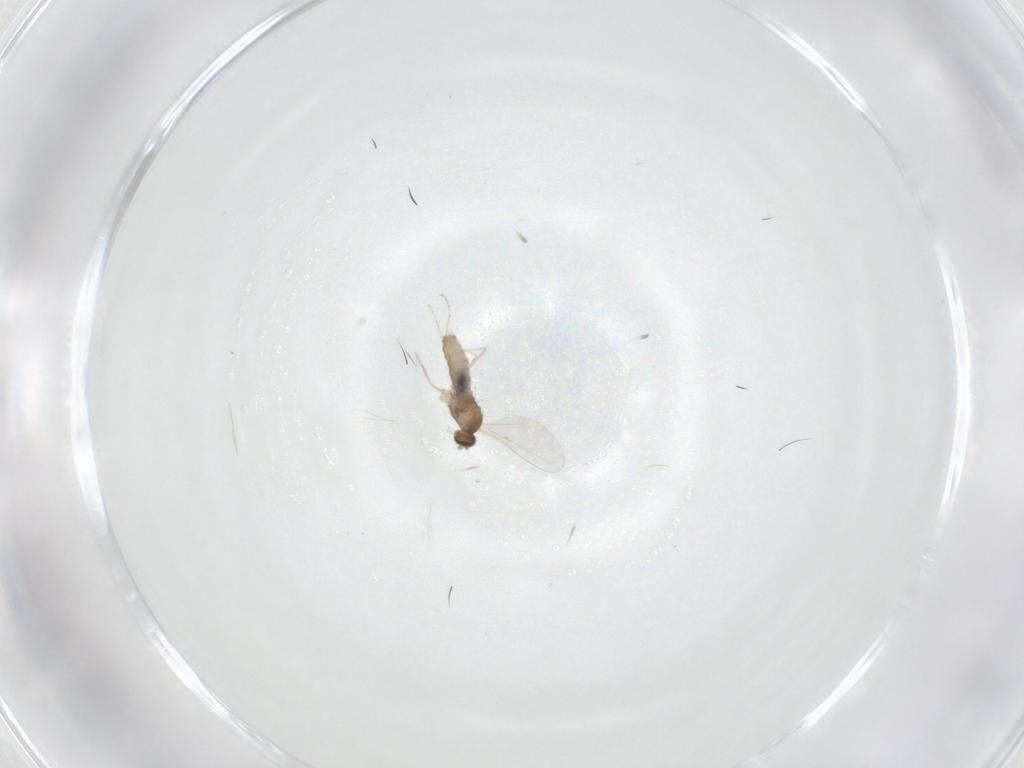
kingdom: Animalia
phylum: Arthropoda
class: Insecta
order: Diptera
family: Cecidomyiidae
